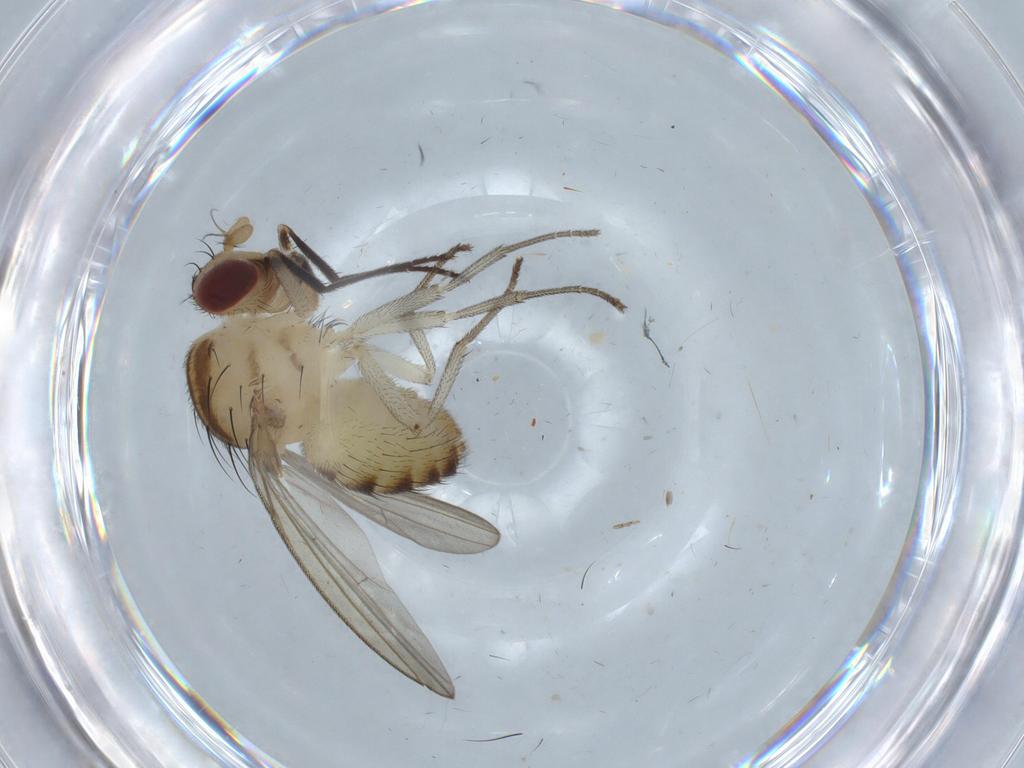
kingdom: Animalia
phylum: Arthropoda
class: Insecta
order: Diptera
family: Lauxaniidae
